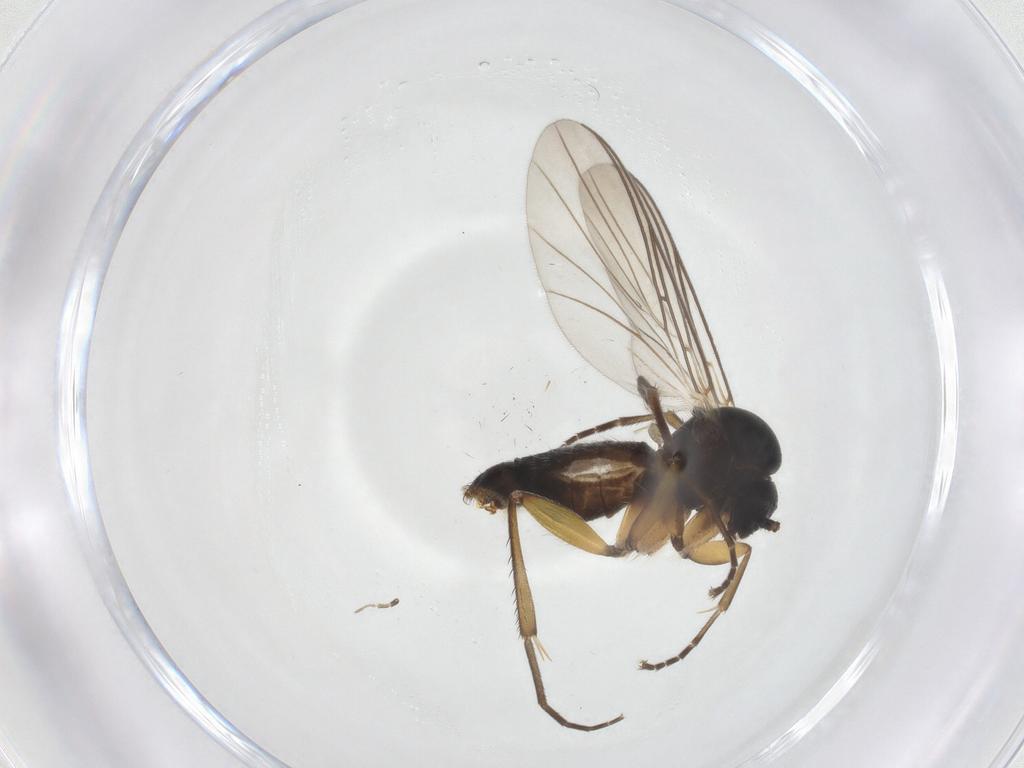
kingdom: Animalia
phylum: Arthropoda
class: Insecta
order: Diptera
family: Mycetophilidae
